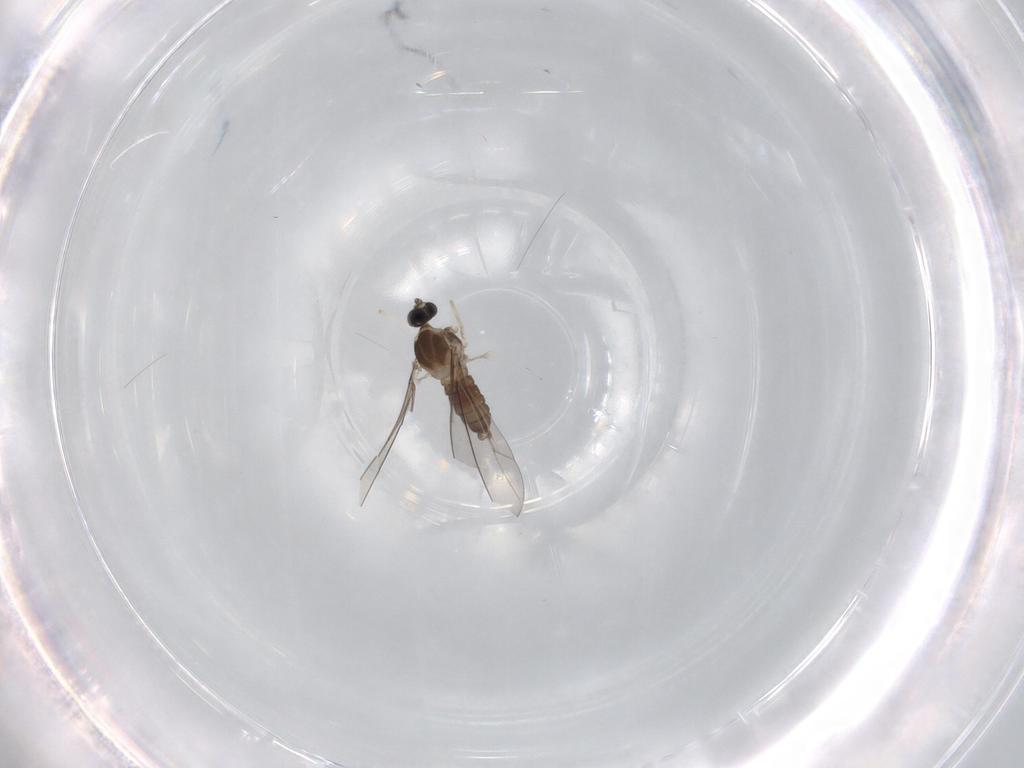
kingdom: Animalia
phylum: Arthropoda
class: Insecta
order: Diptera
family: Cecidomyiidae
